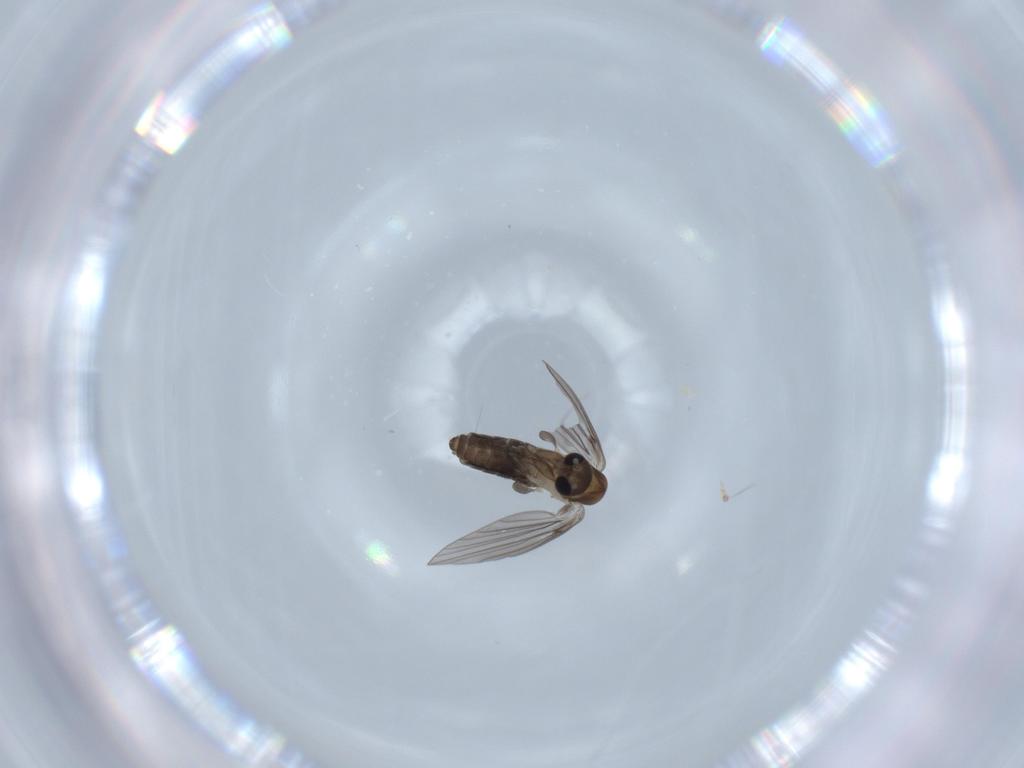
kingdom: Animalia
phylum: Arthropoda
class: Insecta
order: Diptera
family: Psychodidae
